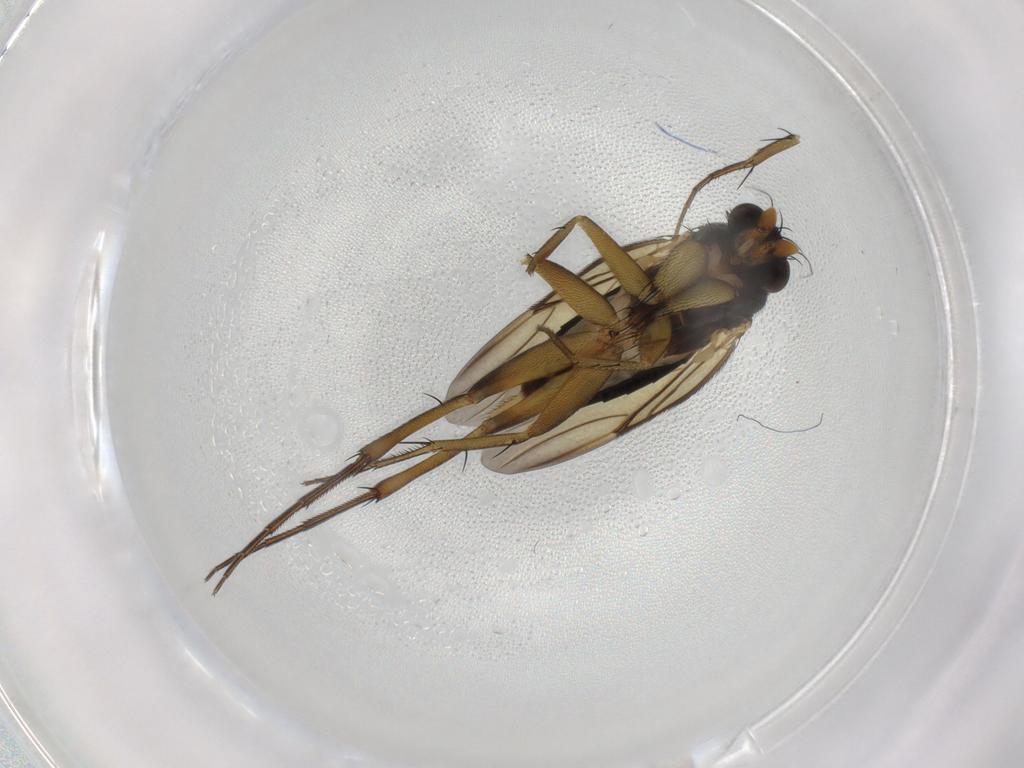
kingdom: Animalia
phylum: Arthropoda
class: Insecta
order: Diptera
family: Phoridae
